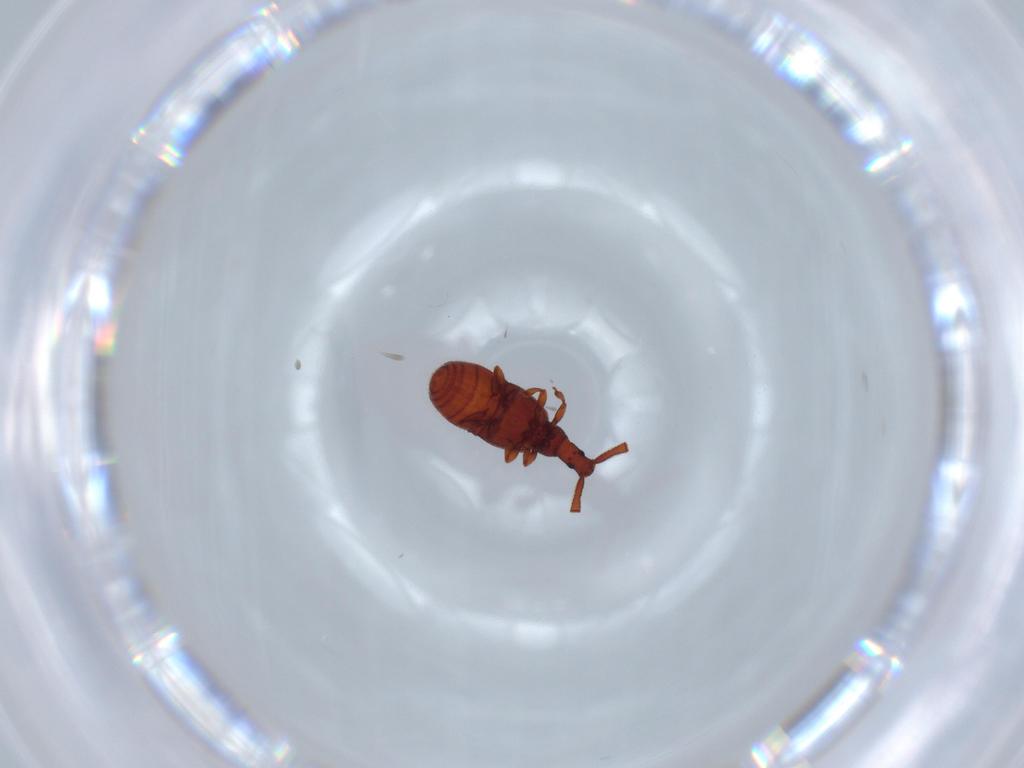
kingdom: Animalia
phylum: Arthropoda
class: Insecta
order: Coleoptera
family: Staphylinidae
